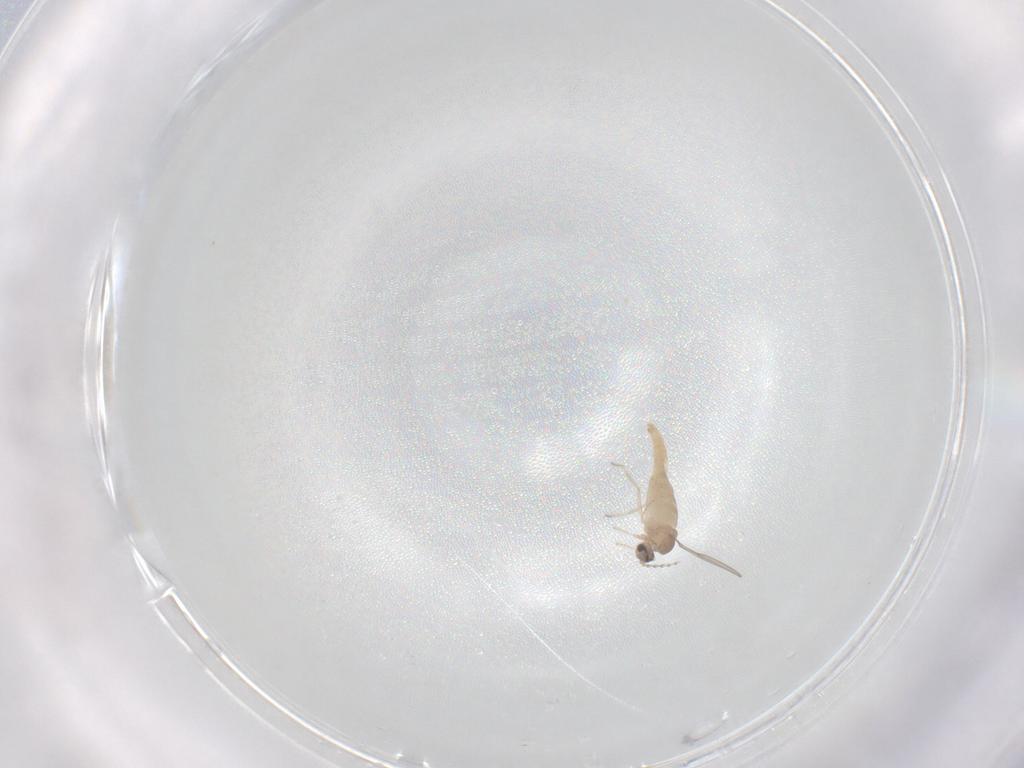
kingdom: Animalia
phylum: Arthropoda
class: Insecta
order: Diptera
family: Cecidomyiidae
